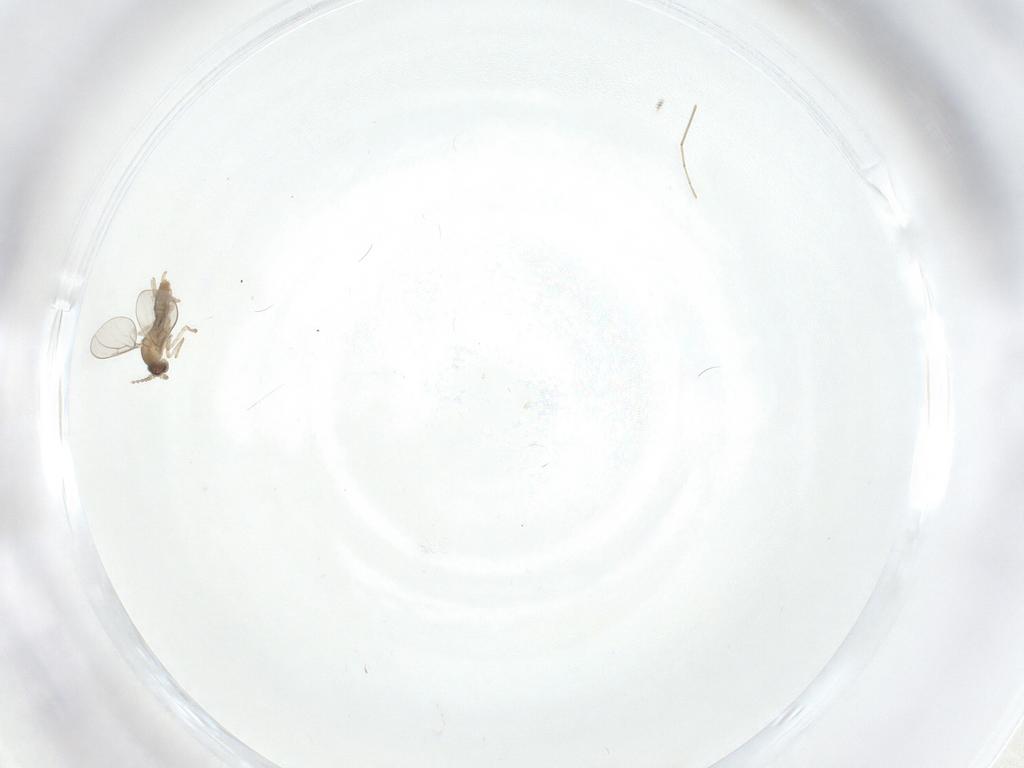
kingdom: Animalia
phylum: Arthropoda
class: Insecta
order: Diptera
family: Cecidomyiidae
